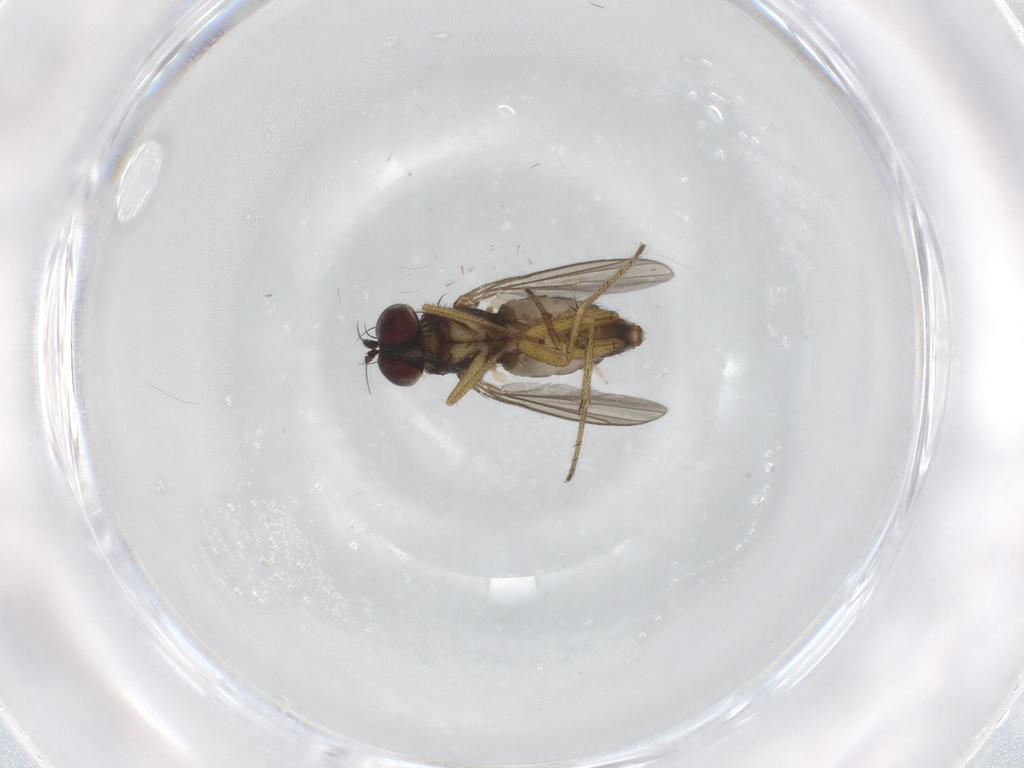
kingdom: Animalia
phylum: Arthropoda
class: Insecta
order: Diptera
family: Dolichopodidae
